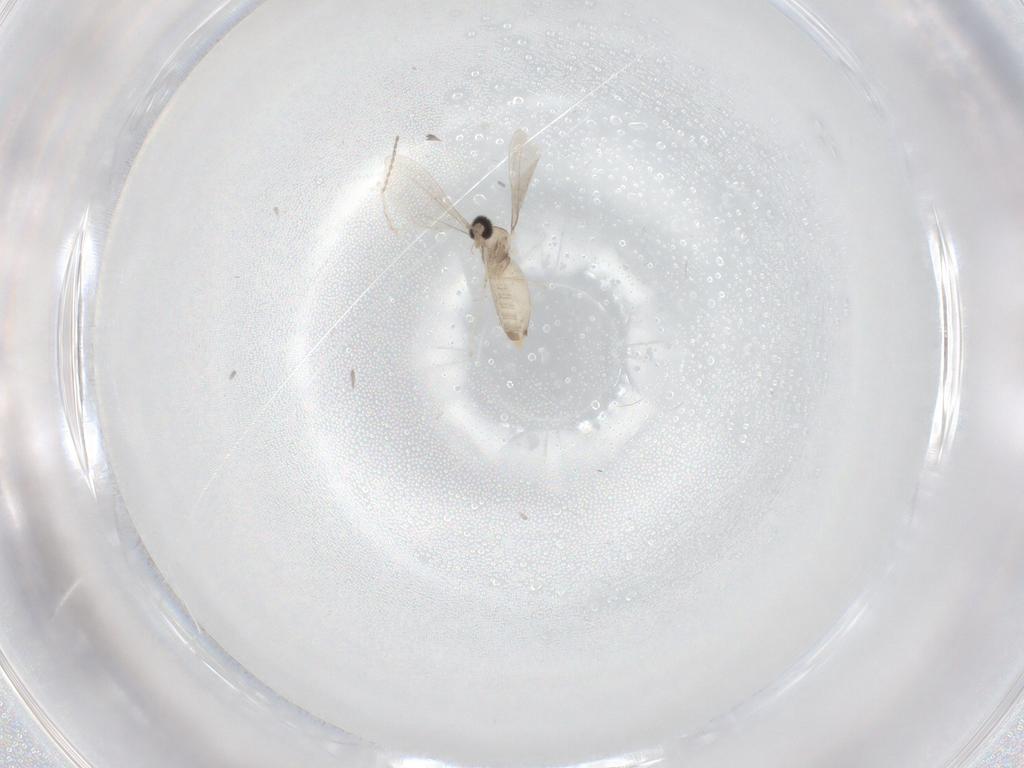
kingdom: Animalia
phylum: Arthropoda
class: Insecta
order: Diptera
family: Cecidomyiidae
